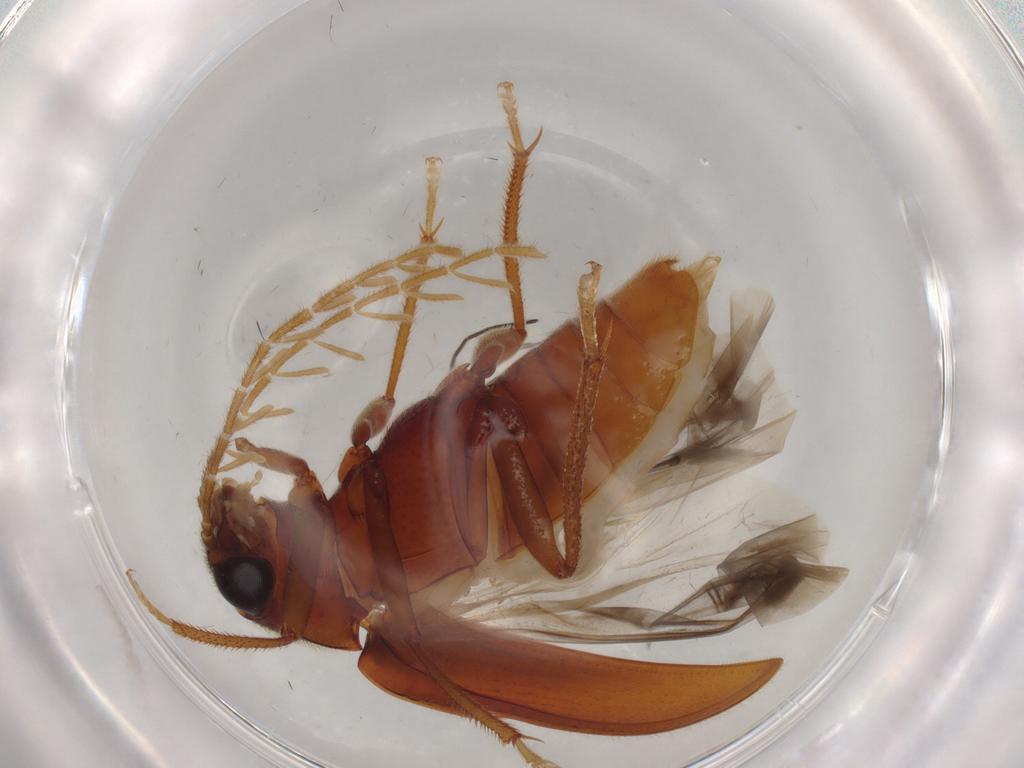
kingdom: Animalia
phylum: Arthropoda
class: Insecta
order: Coleoptera
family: Ptilodactylidae
